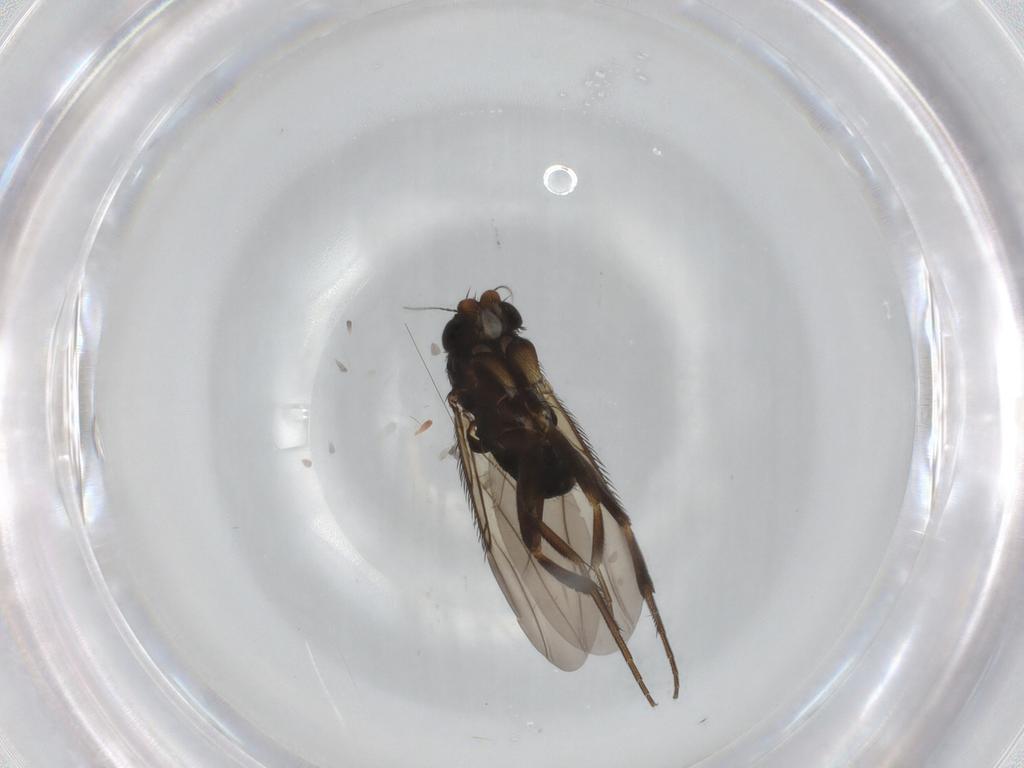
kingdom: Animalia
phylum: Arthropoda
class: Insecta
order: Diptera
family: Phoridae
